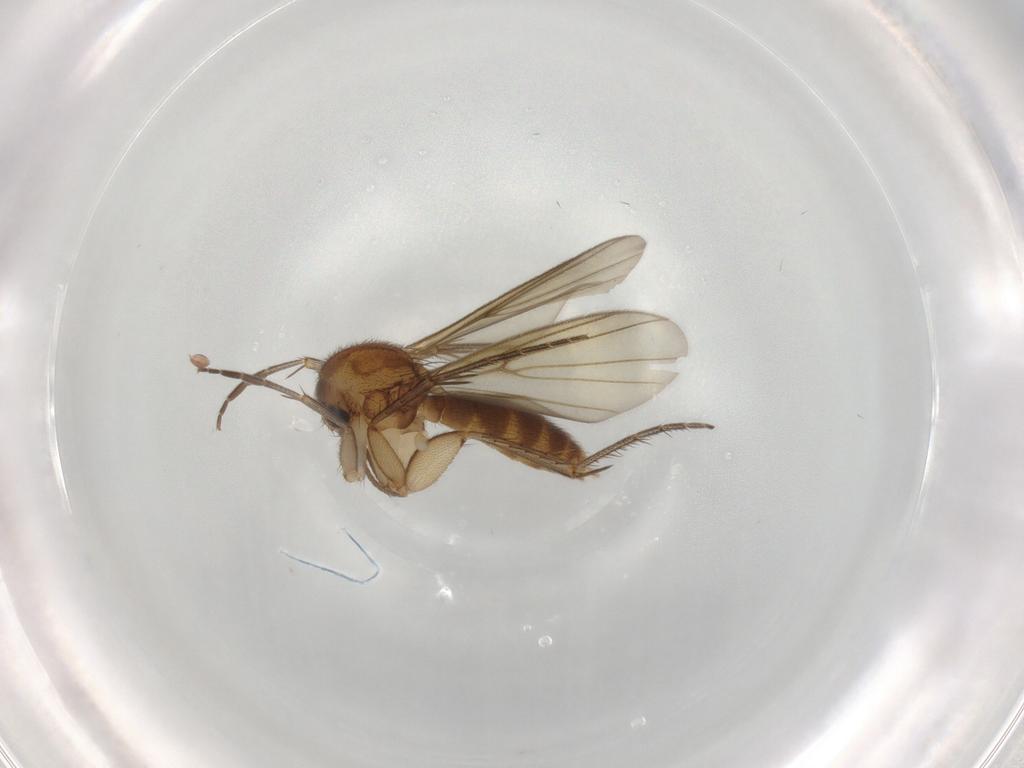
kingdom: Animalia
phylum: Arthropoda
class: Insecta
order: Diptera
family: Mycetophilidae
